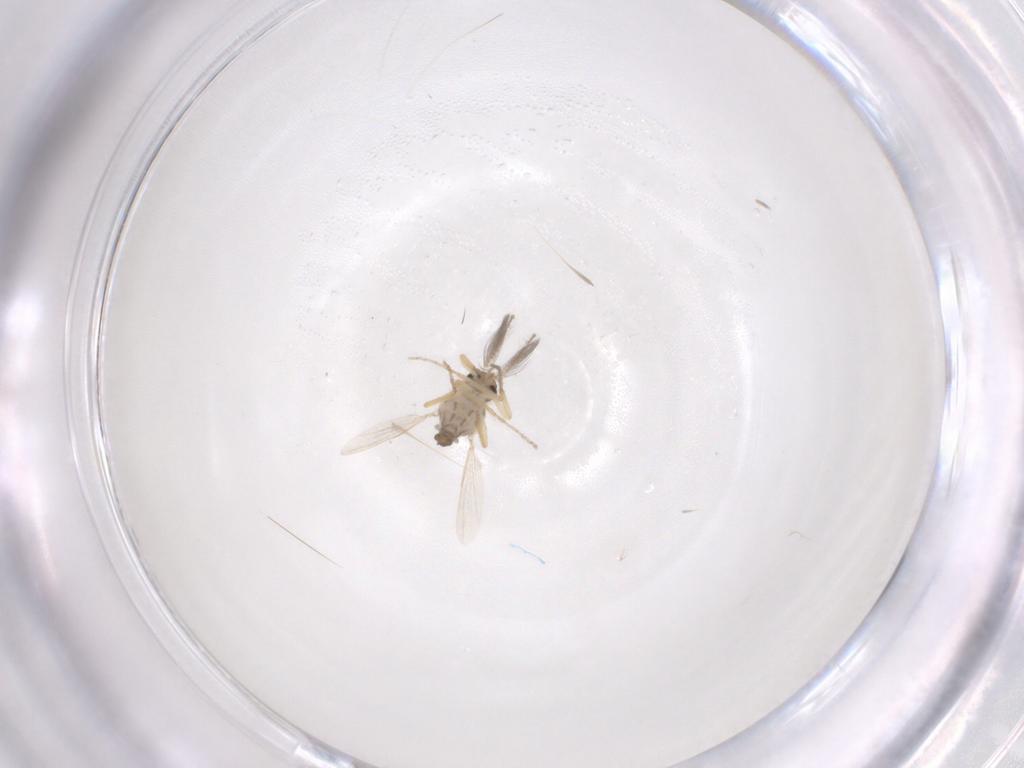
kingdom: Animalia
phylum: Arthropoda
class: Insecta
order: Diptera
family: Ceratopogonidae
